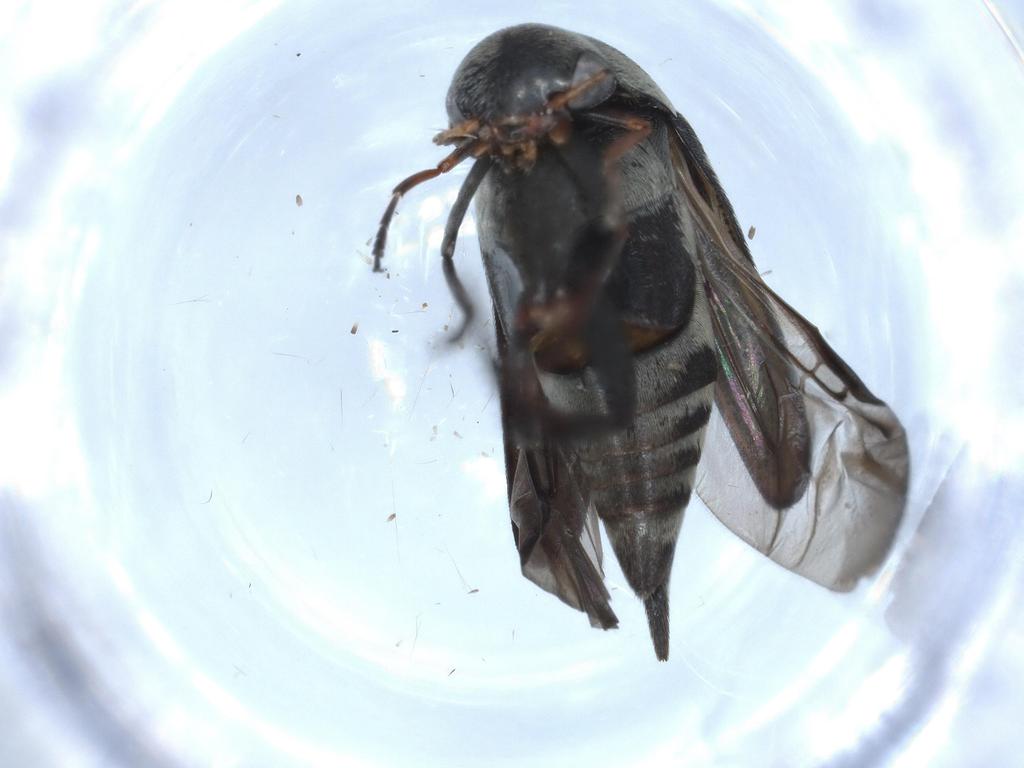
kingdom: Animalia
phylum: Arthropoda
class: Insecta
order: Coleoptera
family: Mordellidae
